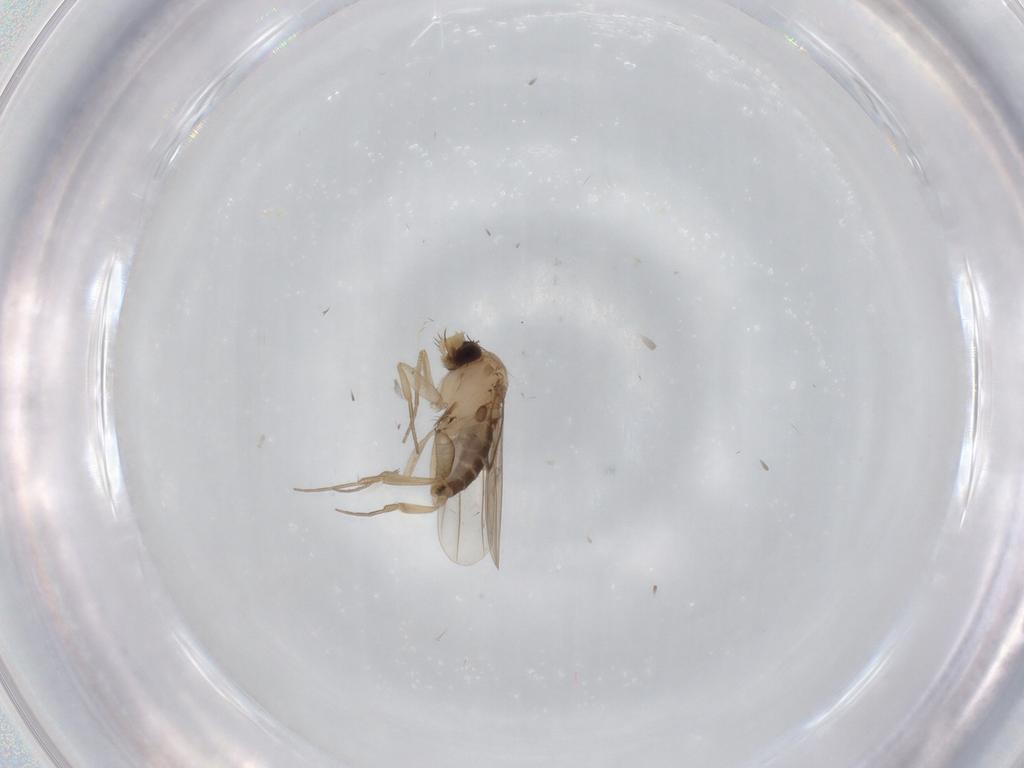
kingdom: Animalia
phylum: Arthropoda
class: Insecta
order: Diptera
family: Phoridae
